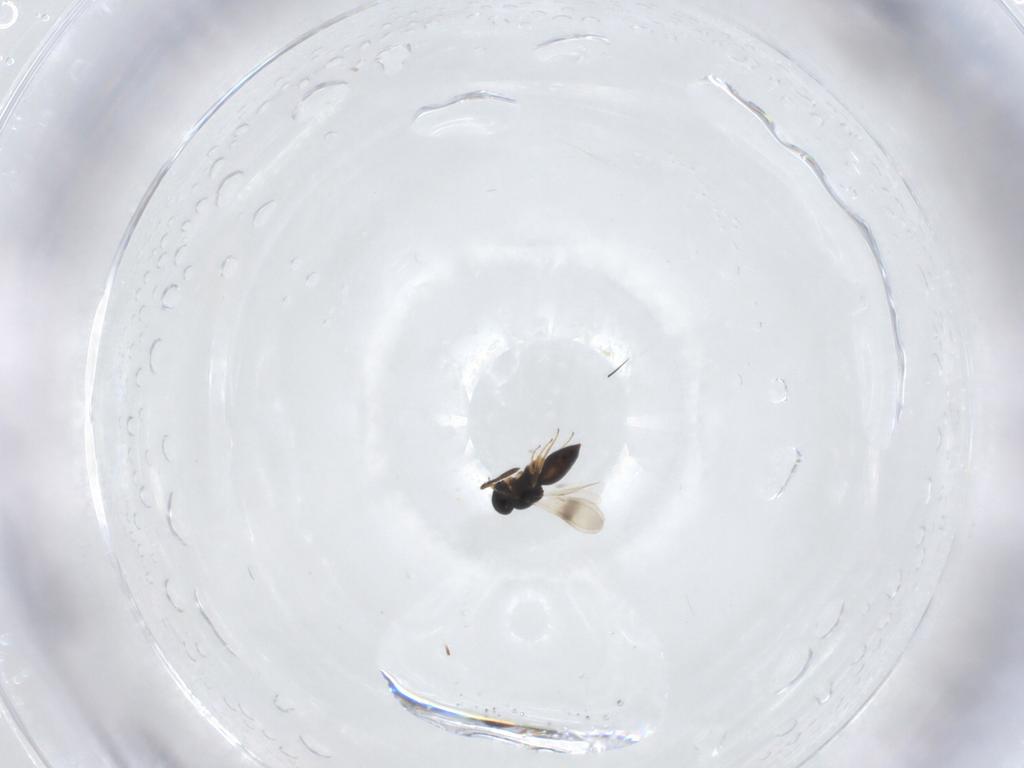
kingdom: Animalia
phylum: Arthropoda
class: Insecta
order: Hymenoptera
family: Scelionidae
